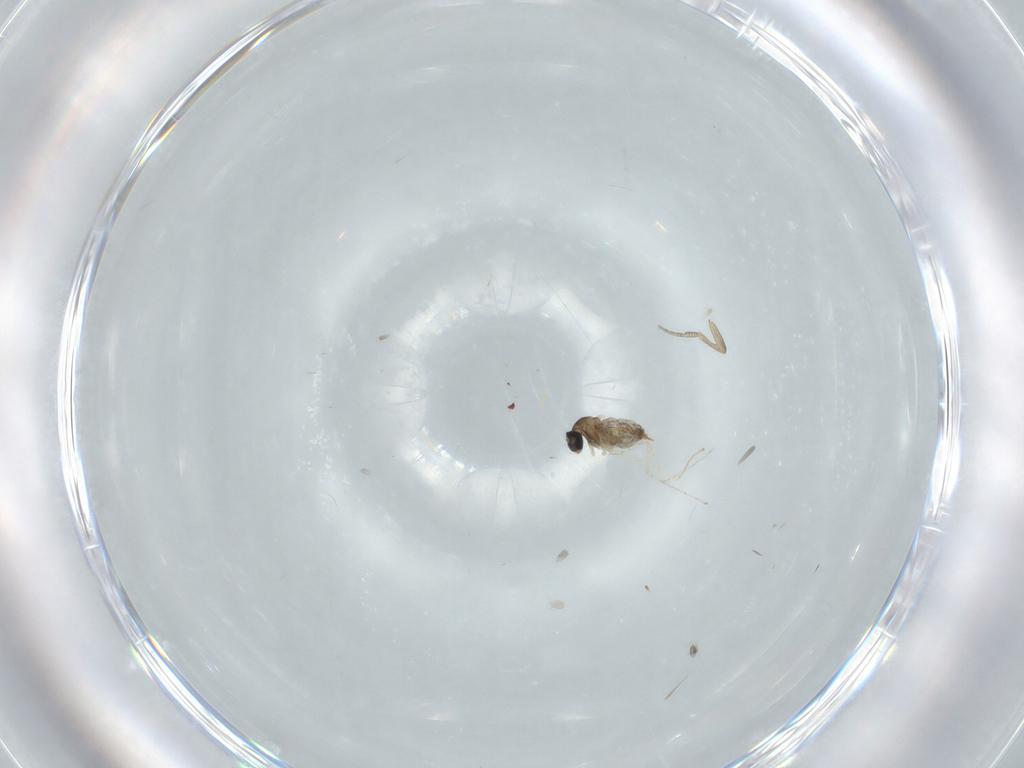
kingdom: Animalia
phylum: Arthropoda
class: Insecta
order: Diptera
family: Cecidomyiidae
